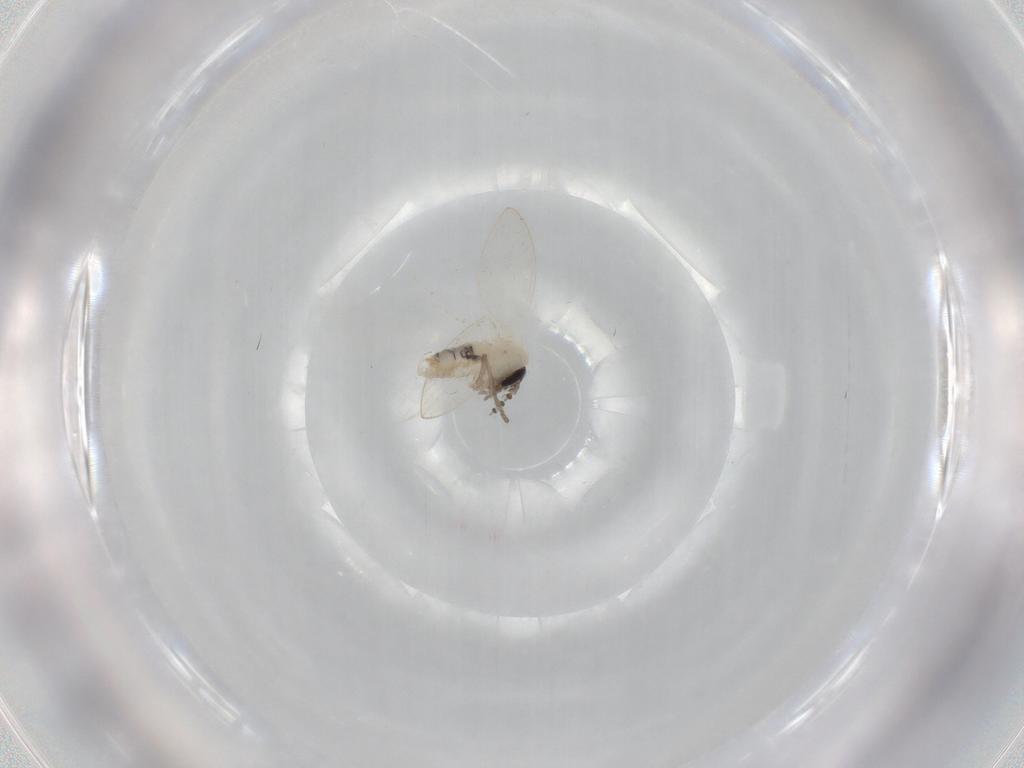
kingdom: Animalia
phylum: Arthropoda
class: Insecta
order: Diptera
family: Psychodidae
